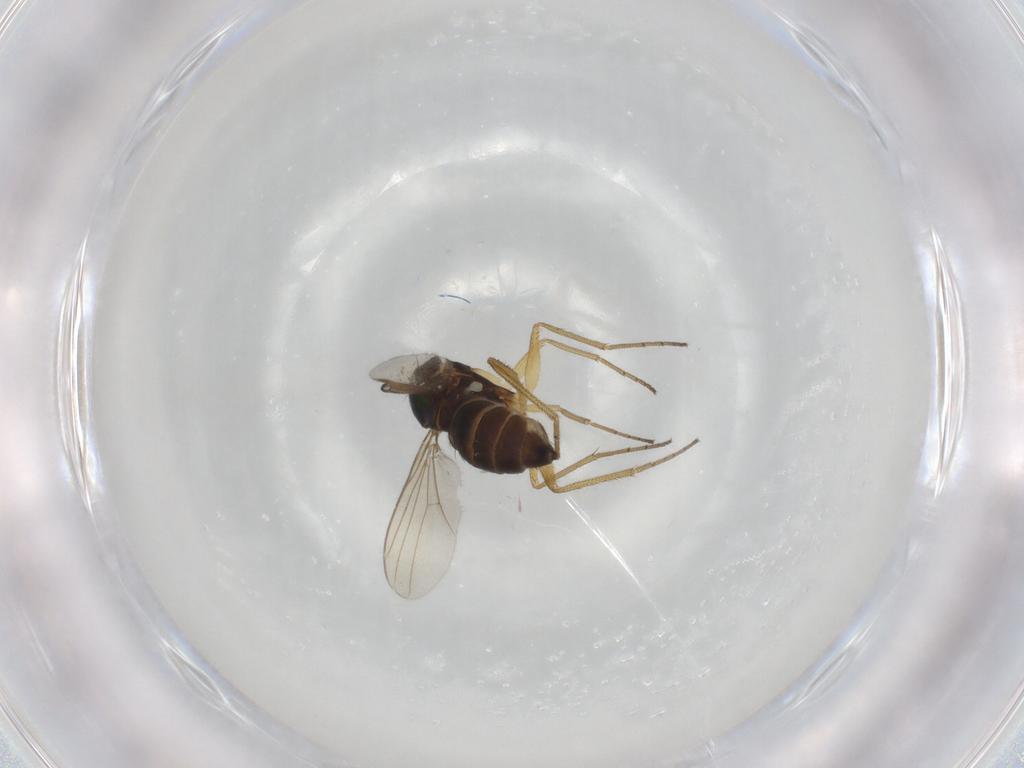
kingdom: Animalia
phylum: Arthropoda
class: Insecta
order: Diptera
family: Dolichopodidae
